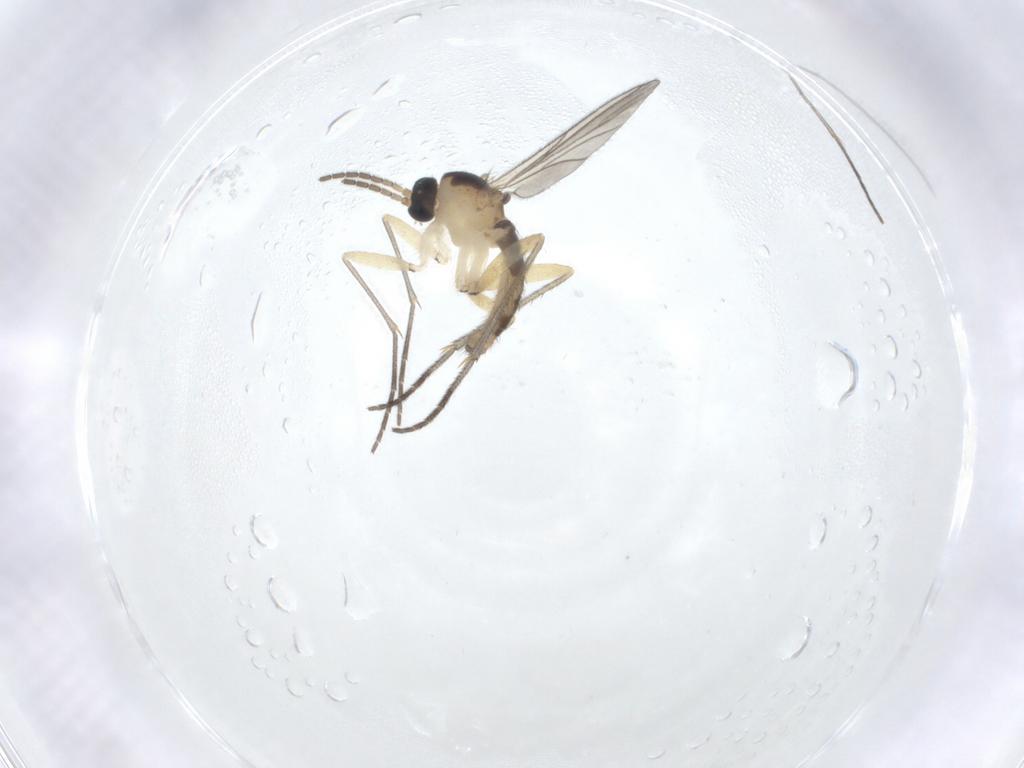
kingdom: Animalia
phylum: Arthropoda
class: Insecta
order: Diptera
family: Sciaridae
